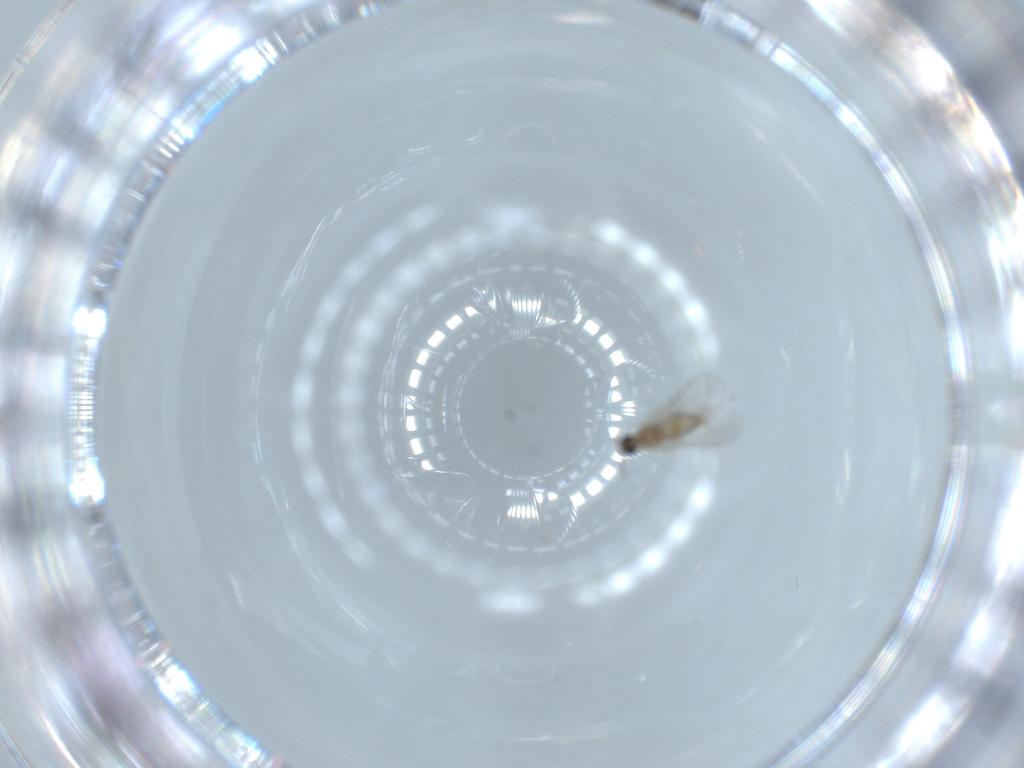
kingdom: Animalia
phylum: Arthropoda
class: Insecta
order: Diptera
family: Cecidomyiidae
